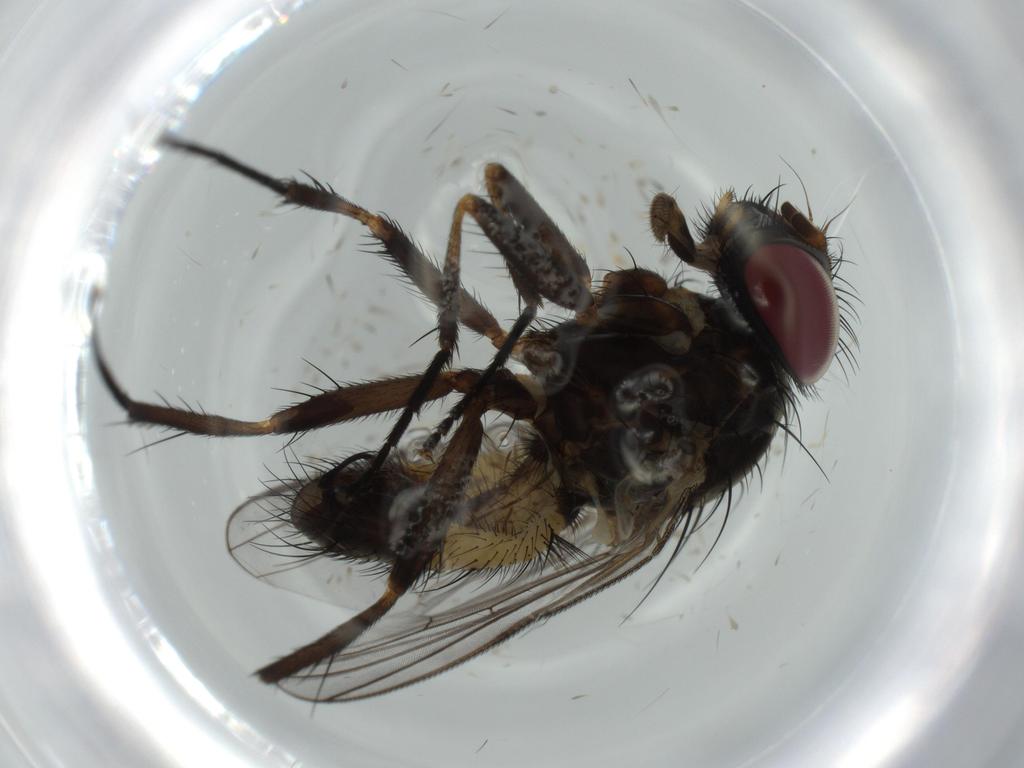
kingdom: Animalia
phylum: Arthropoda
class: Insecta
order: Diptera
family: Fannia
